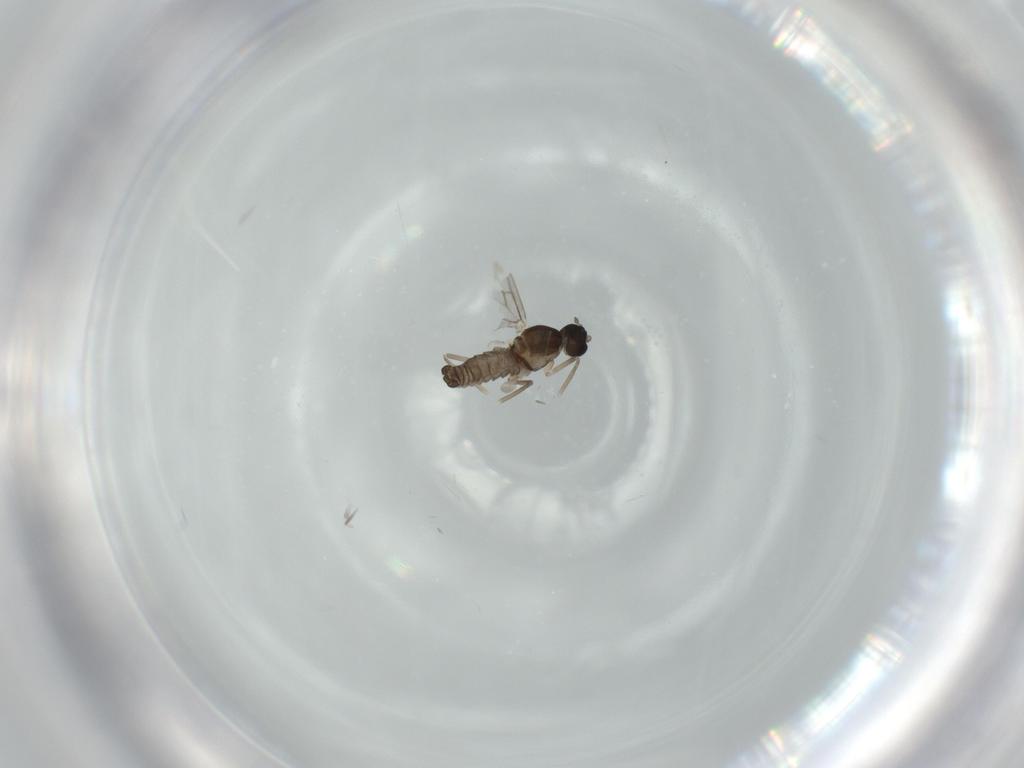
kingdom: Animalia
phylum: Arthropoda
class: Insecta
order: Diptera
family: Cecidomyiidae
